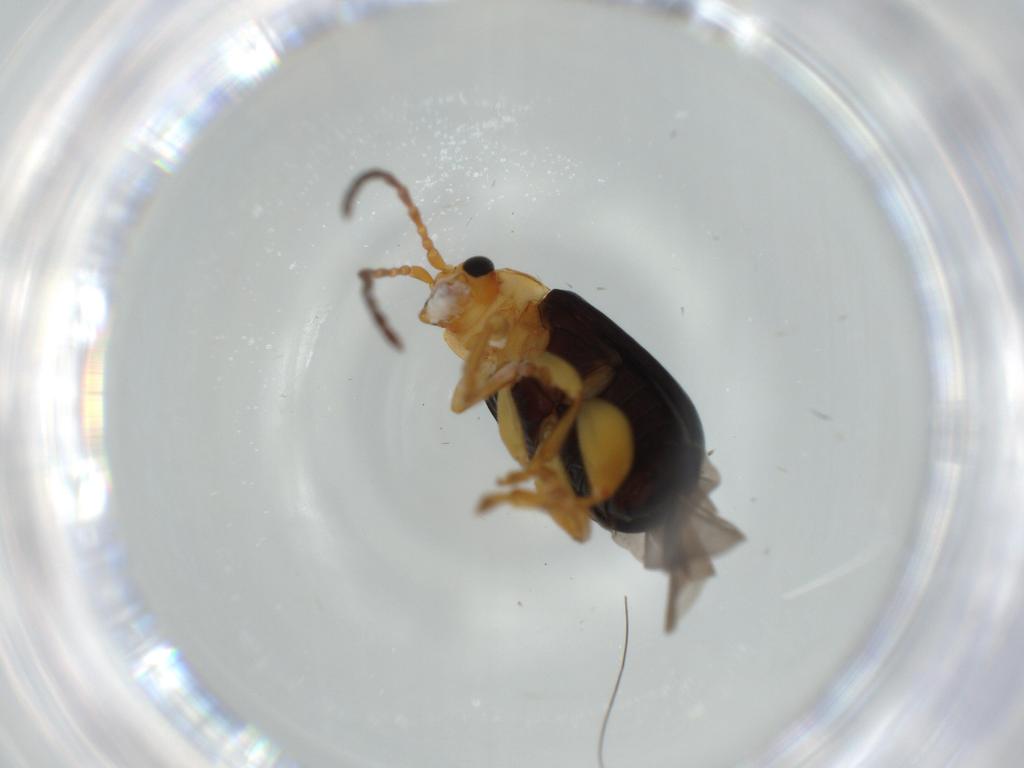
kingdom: Animalia
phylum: Arthropoda
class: Insecta
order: Coleoptera
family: Chrysomelidae
